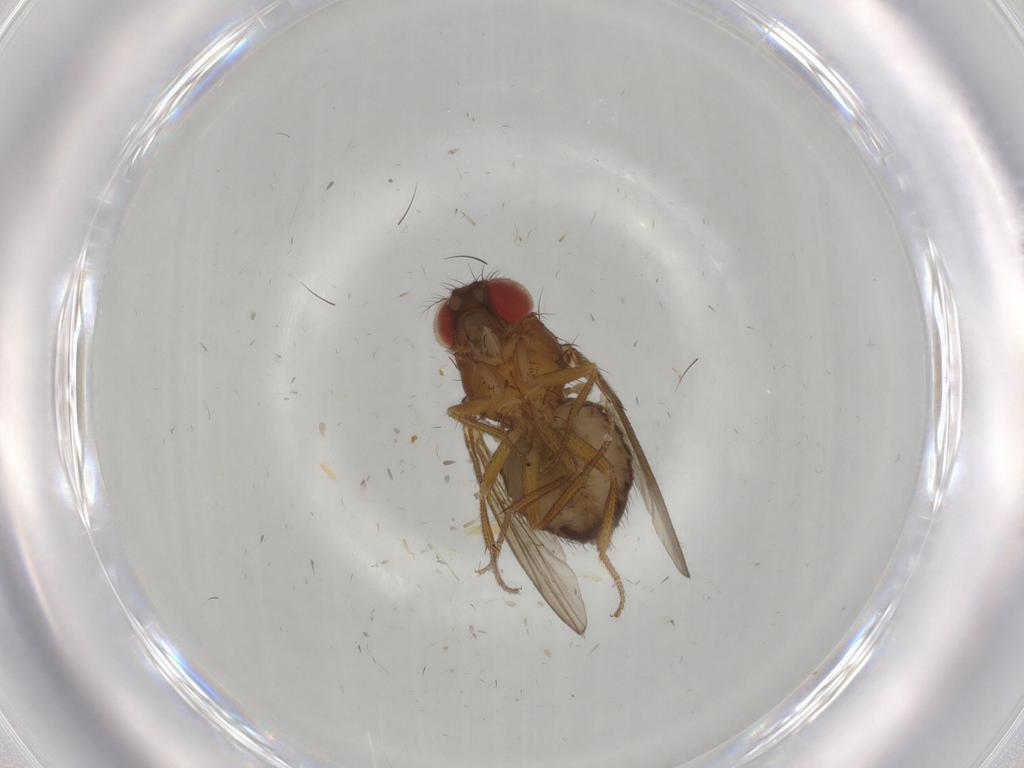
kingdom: Animalia
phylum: Arthropoda
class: Insecta
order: Diptera
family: Drosophilidae
